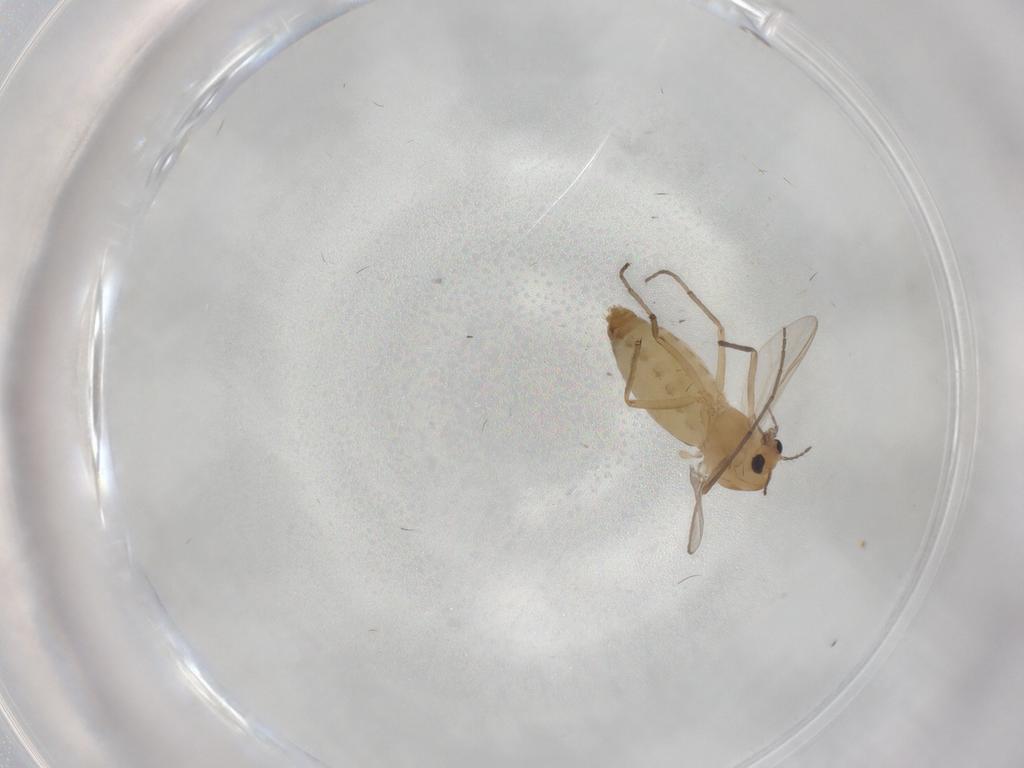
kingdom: Animalia
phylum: Arthropoda
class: Insecta
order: Diptera
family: Chironomidae
